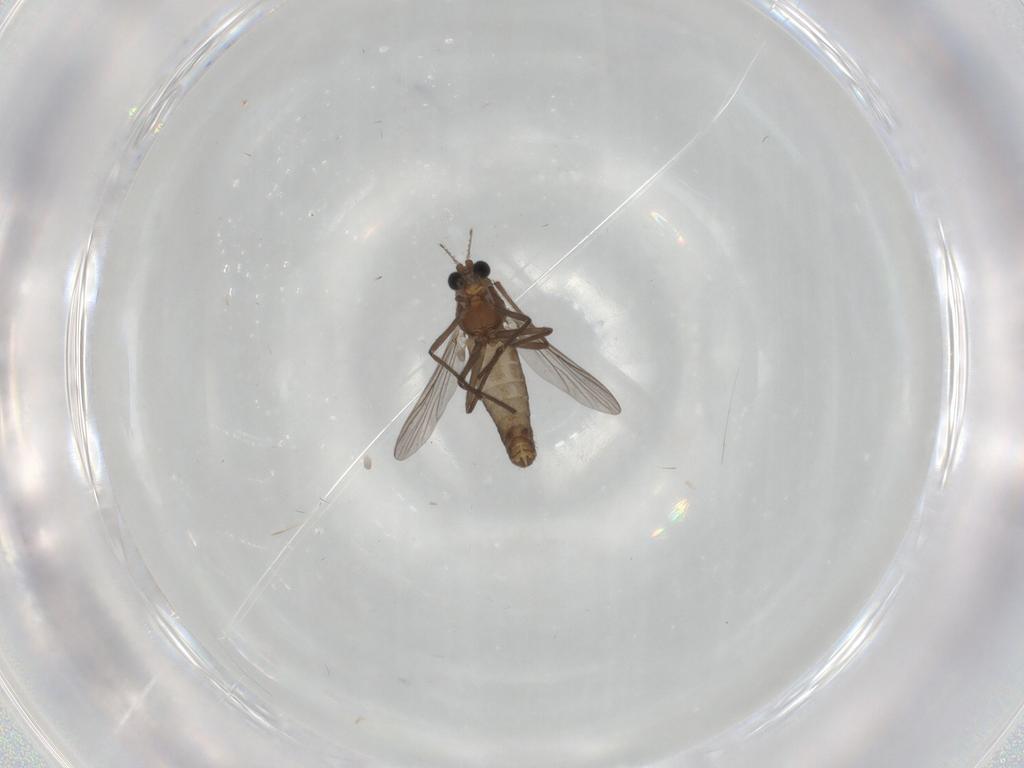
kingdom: Animalia
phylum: Arthropoda
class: Insecta
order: Diptera
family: Chironomidae
